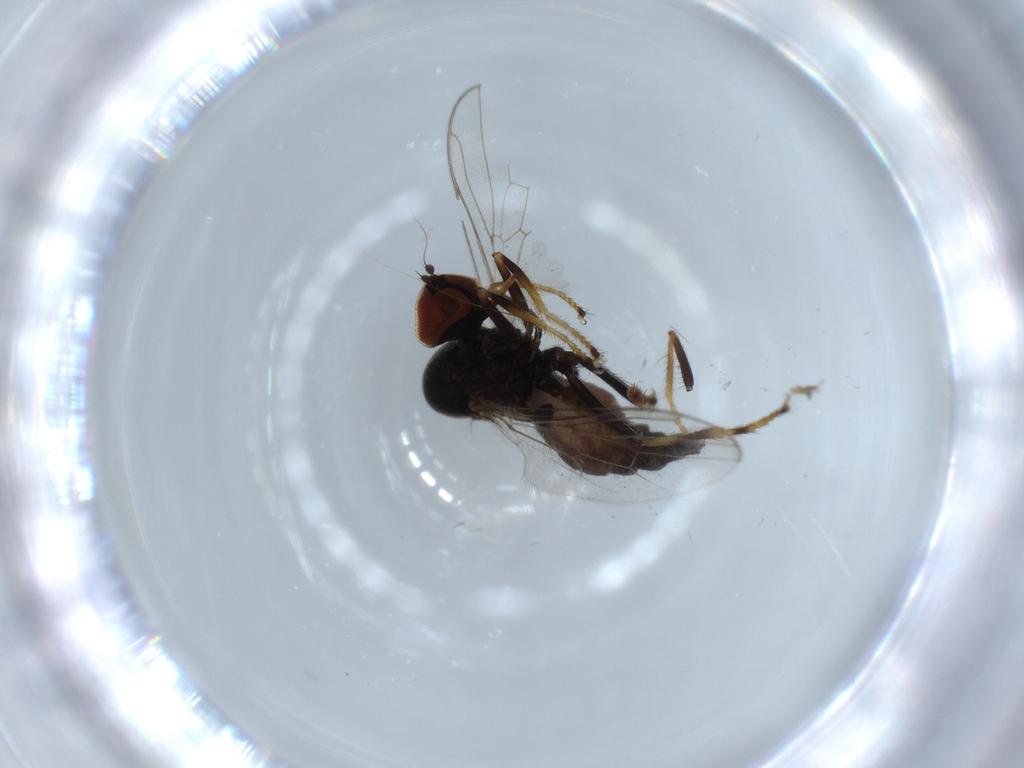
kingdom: Animalia
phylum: Arthropoda
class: Insecta
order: Diptera
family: Hybotidae
